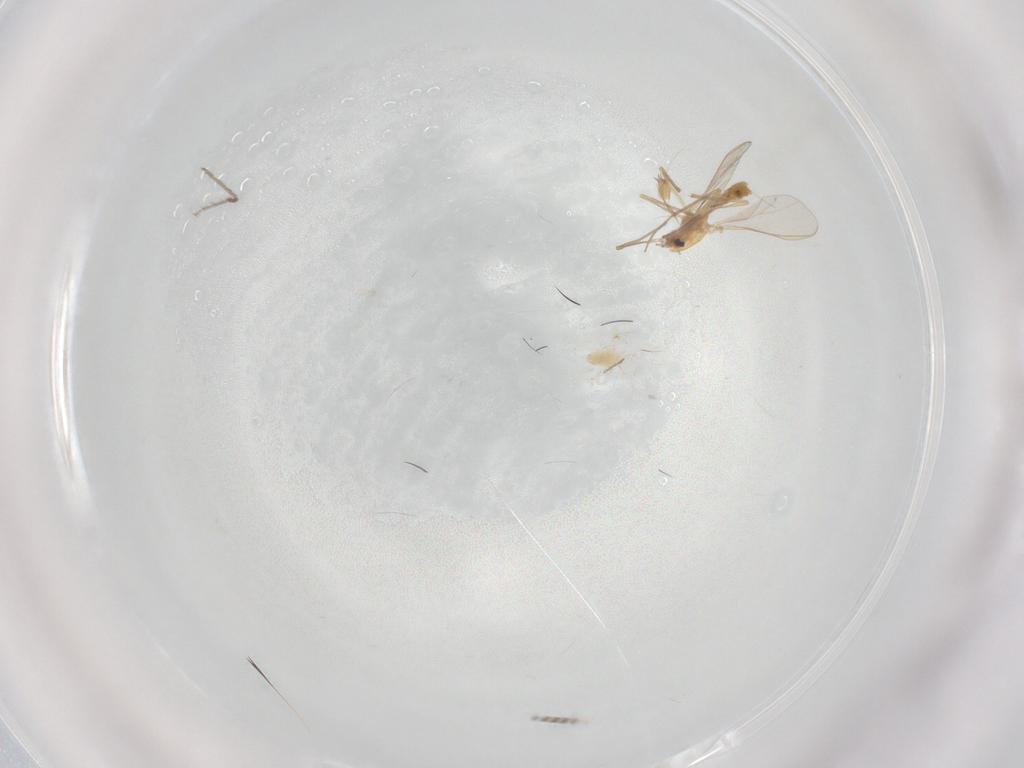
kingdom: Animalia
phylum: Arthropoda
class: Insecta
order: Diptera
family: Chironomidae
